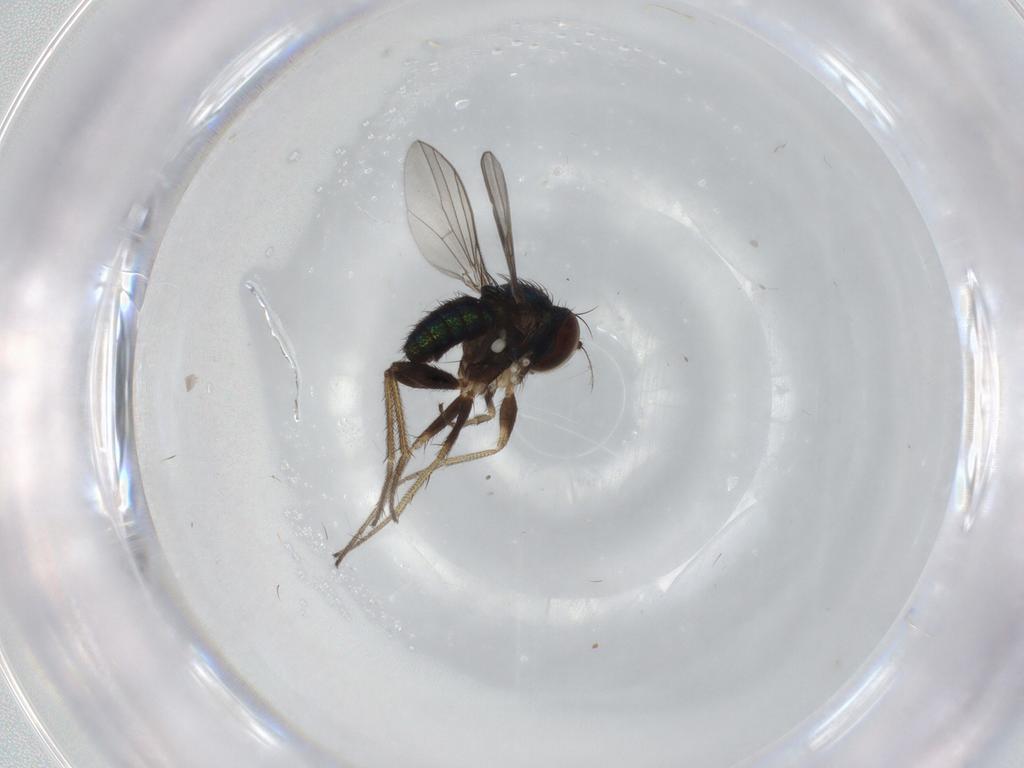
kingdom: Animalia
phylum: Arthropoda
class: Insecta
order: Diptera
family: Dolichopodidae
